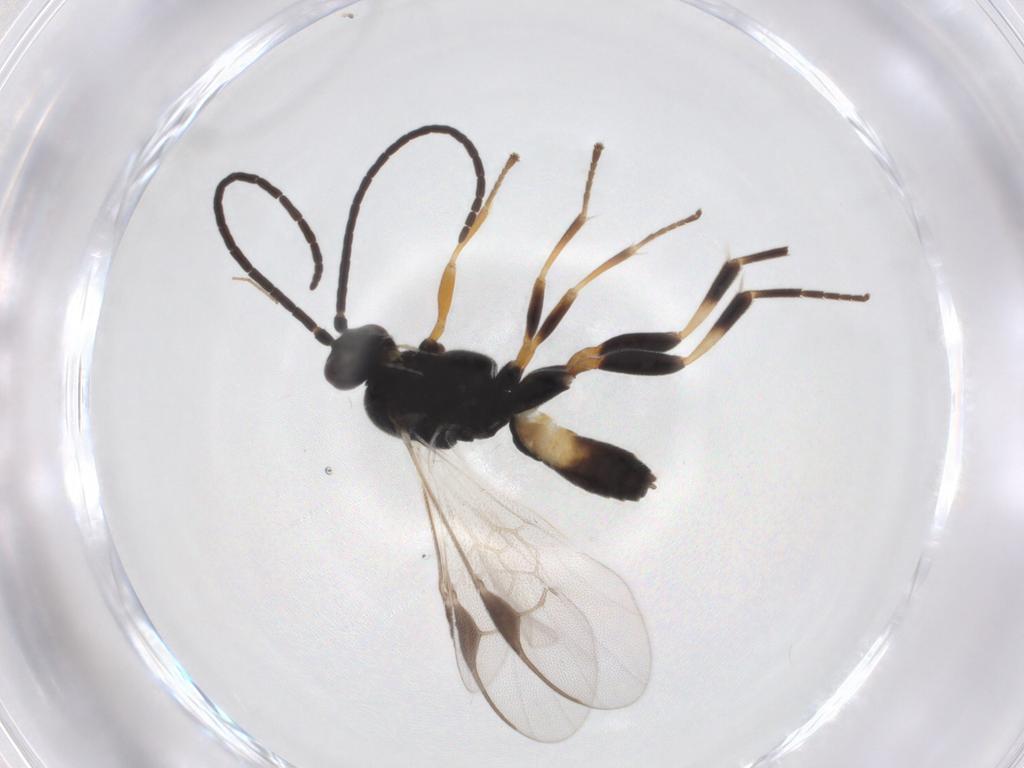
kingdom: Animalia
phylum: Arthropoda
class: Insecta
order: Hymenoptera
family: Braconidae
